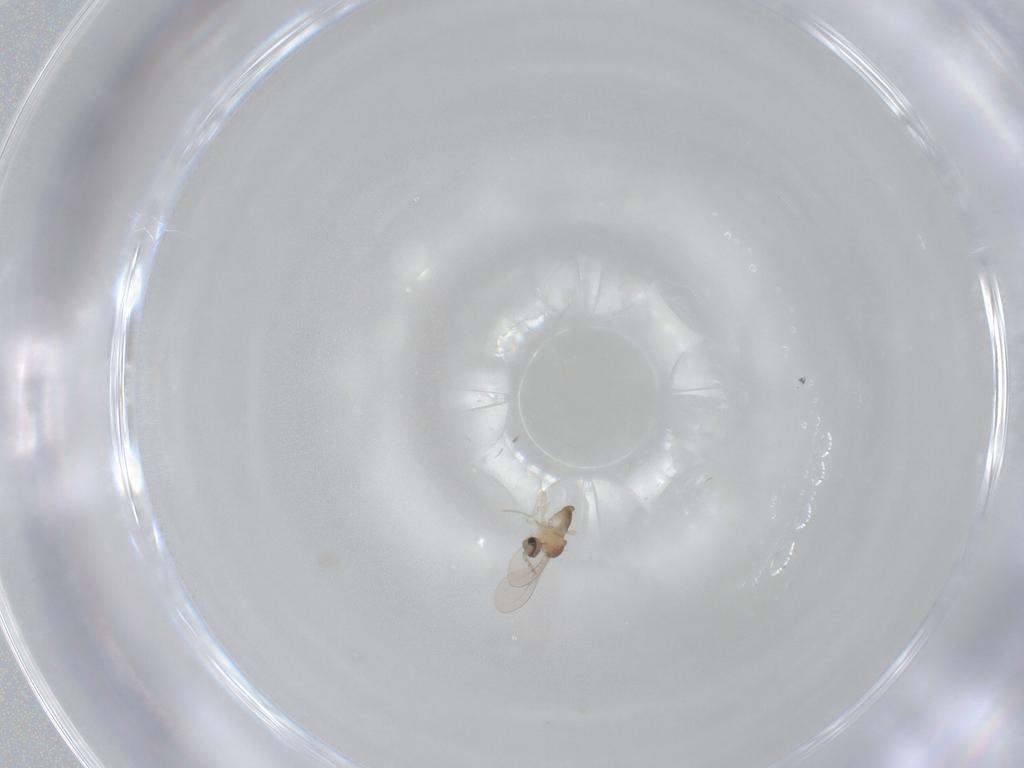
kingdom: Animalia
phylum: Arthropoda
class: Insecta
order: Diptera
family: Cecidomyiidae
